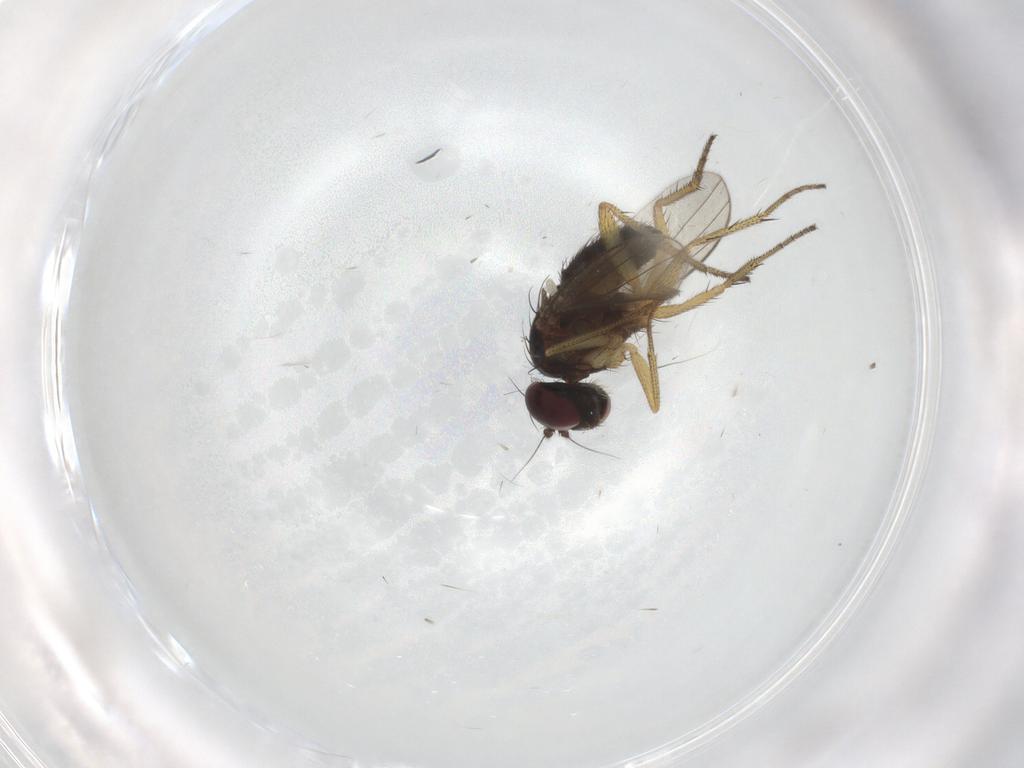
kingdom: Animalia
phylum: Arthropoda
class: Insecta
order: Diptera
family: Dolichopodidae
